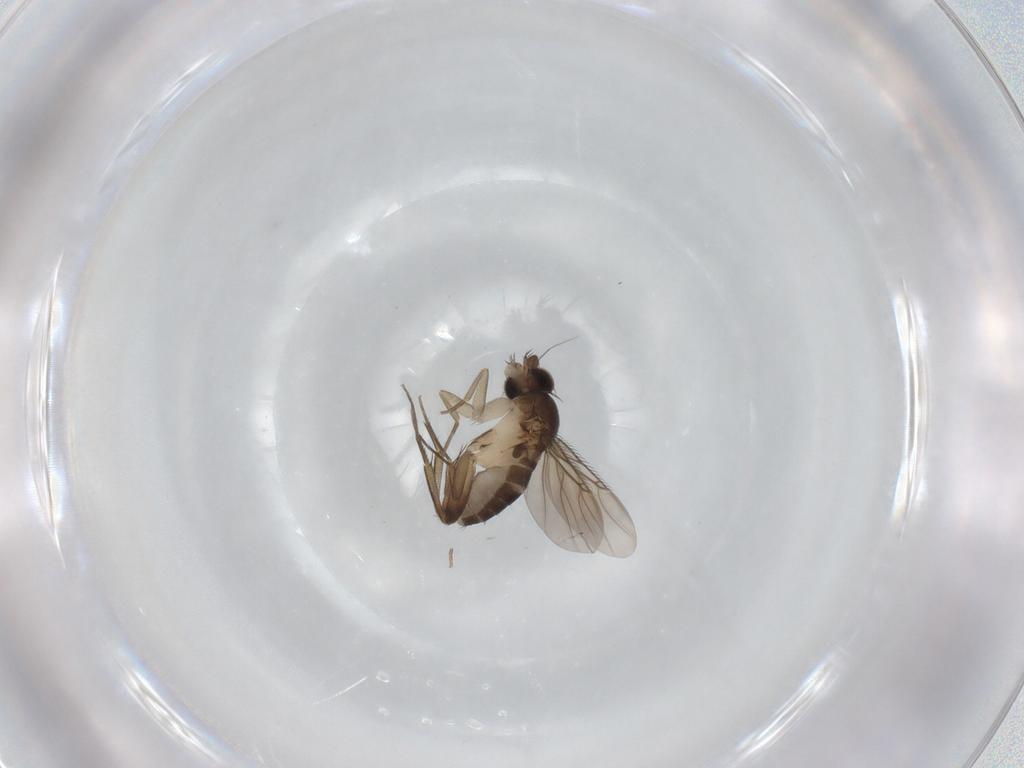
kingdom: Animalia
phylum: Arthropoda
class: Insecta
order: Diptera
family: Phoridae
